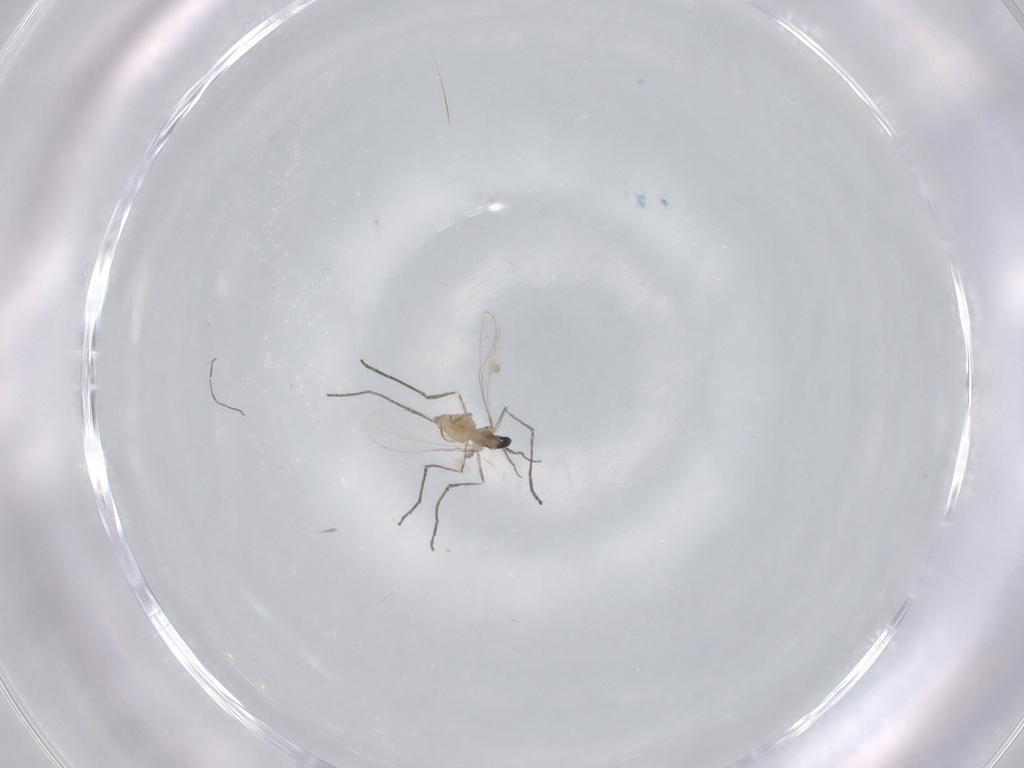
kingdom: Animalia
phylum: Arthropoda
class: Insecta
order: Diptera
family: Cecidomyiidae
